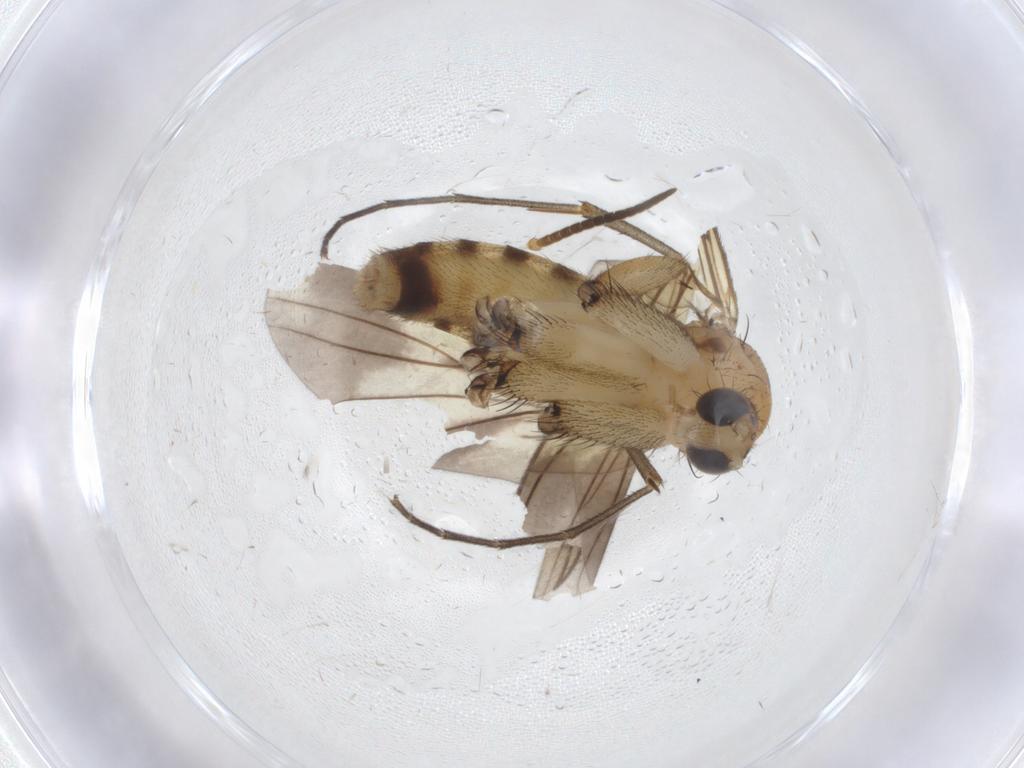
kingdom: Animalia
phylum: Arthropoda
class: Insecta
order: Diptera
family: Mycetophilidae
